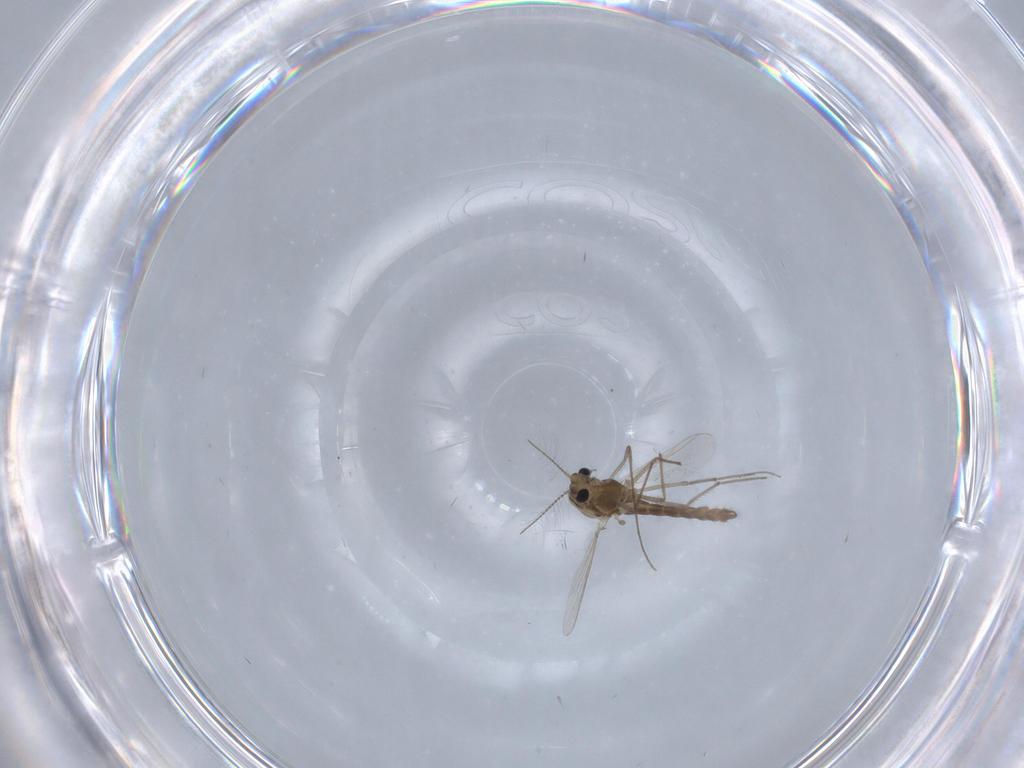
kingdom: Animalia
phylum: Arthropoda
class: Insecta
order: Diptera
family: Chironomidae
